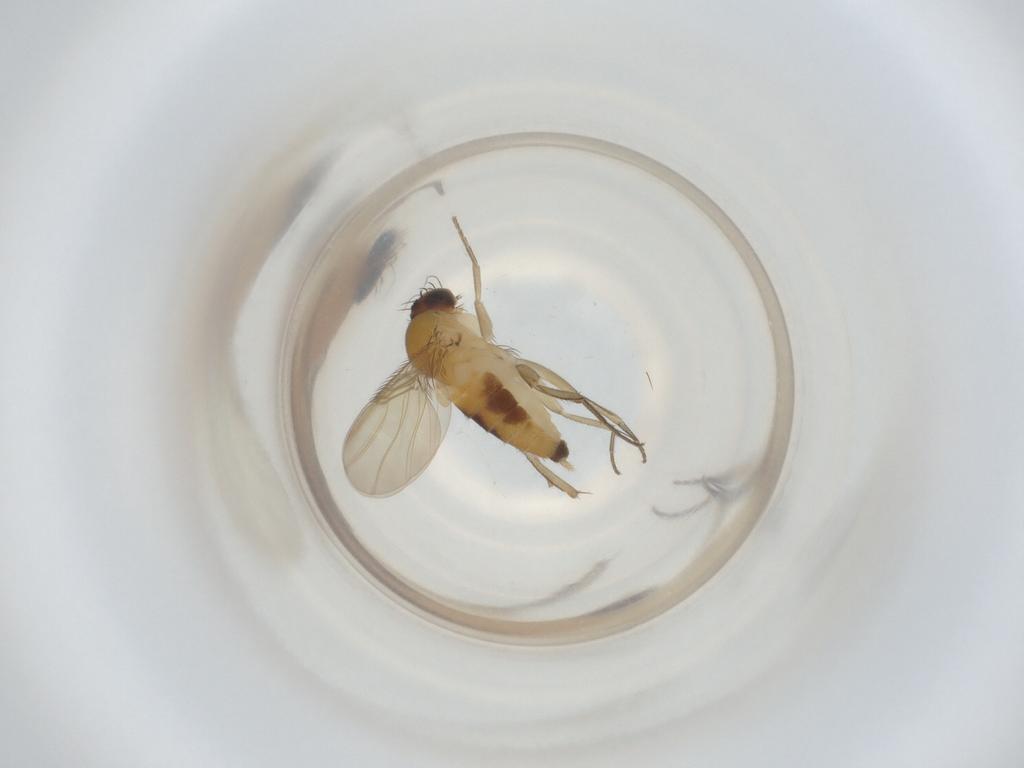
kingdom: Animalia
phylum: Arthropoda
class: Insecta
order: Diptera
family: Phoridae
